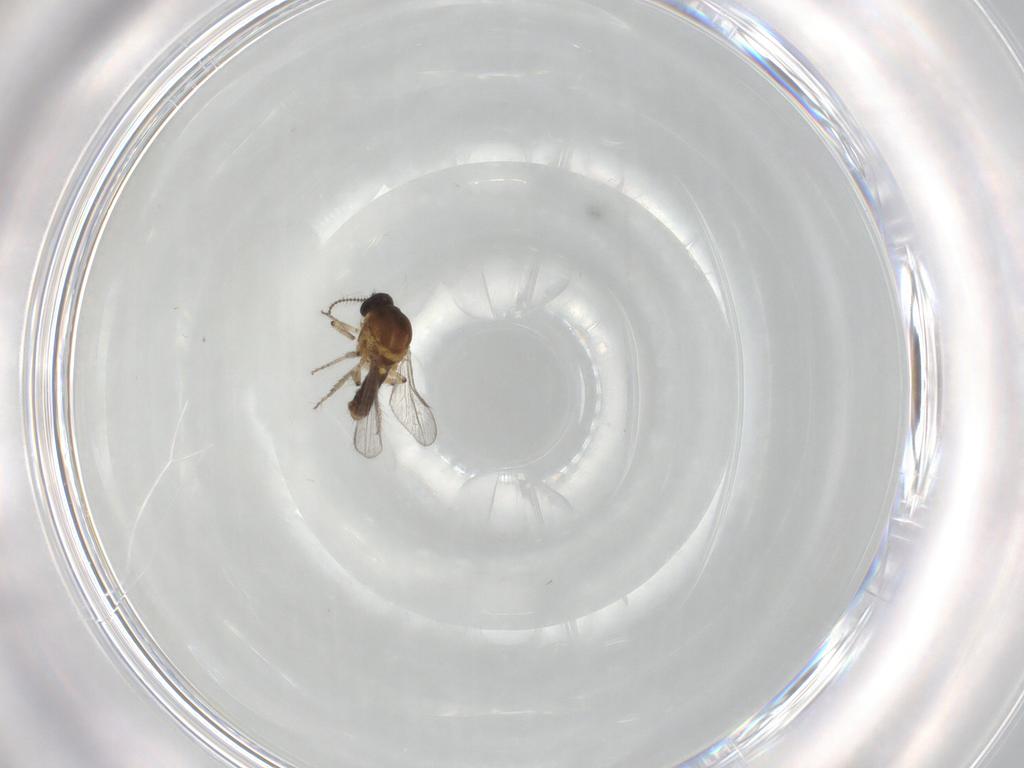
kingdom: Animalia
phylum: Arthropoda
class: Insecta
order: Diptera
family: Ceratopogonidae
